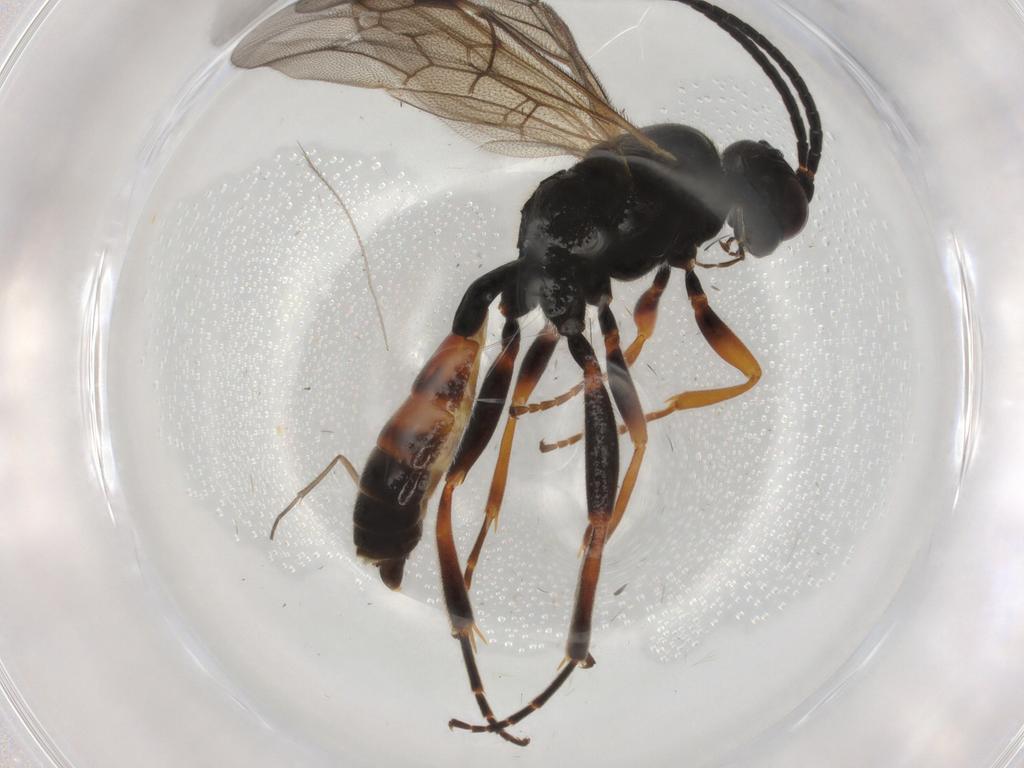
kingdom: Animalia
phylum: Arthropoda
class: Insecta
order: Hymenoptera
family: Ichneumonidae
